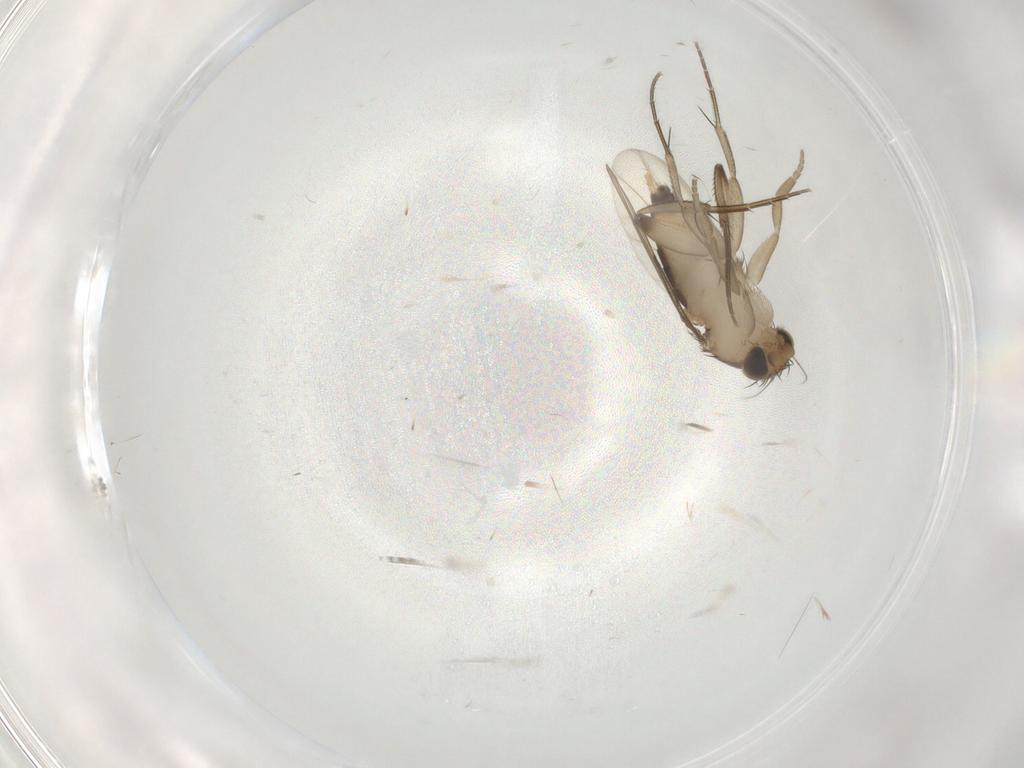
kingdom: Animalia
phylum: Arthropoda
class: Insecta
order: Diptera
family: Phoridae
